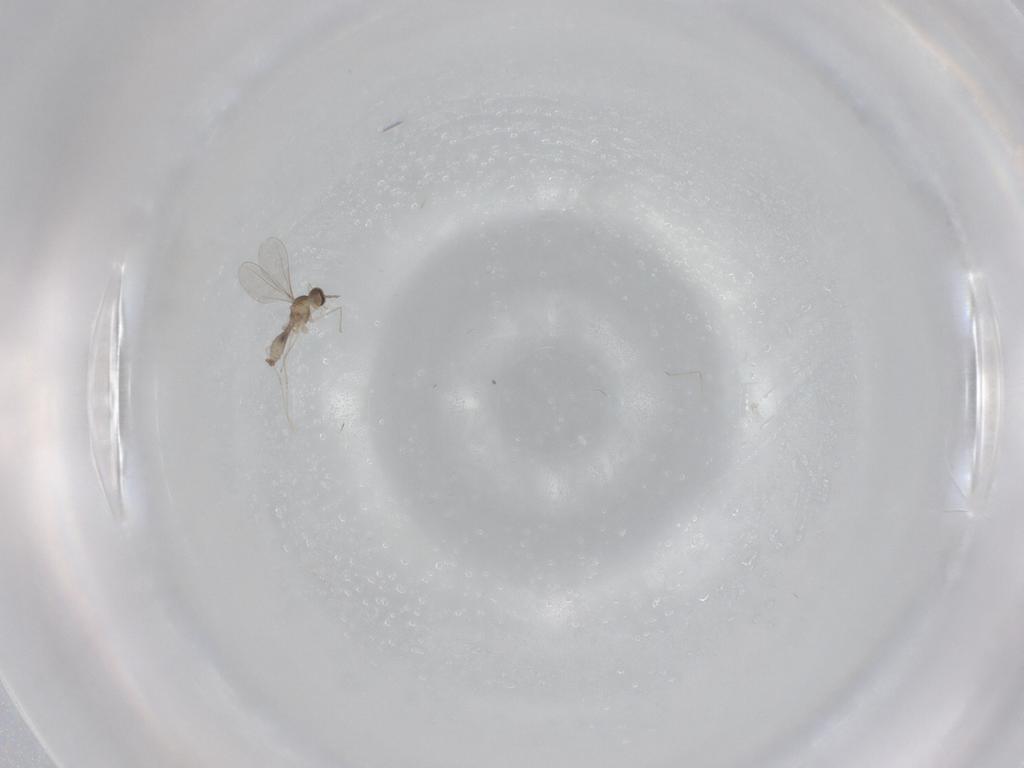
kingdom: Animalia
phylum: Arthropoda
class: Insecta
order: Diptera
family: Cecidomyiidae
